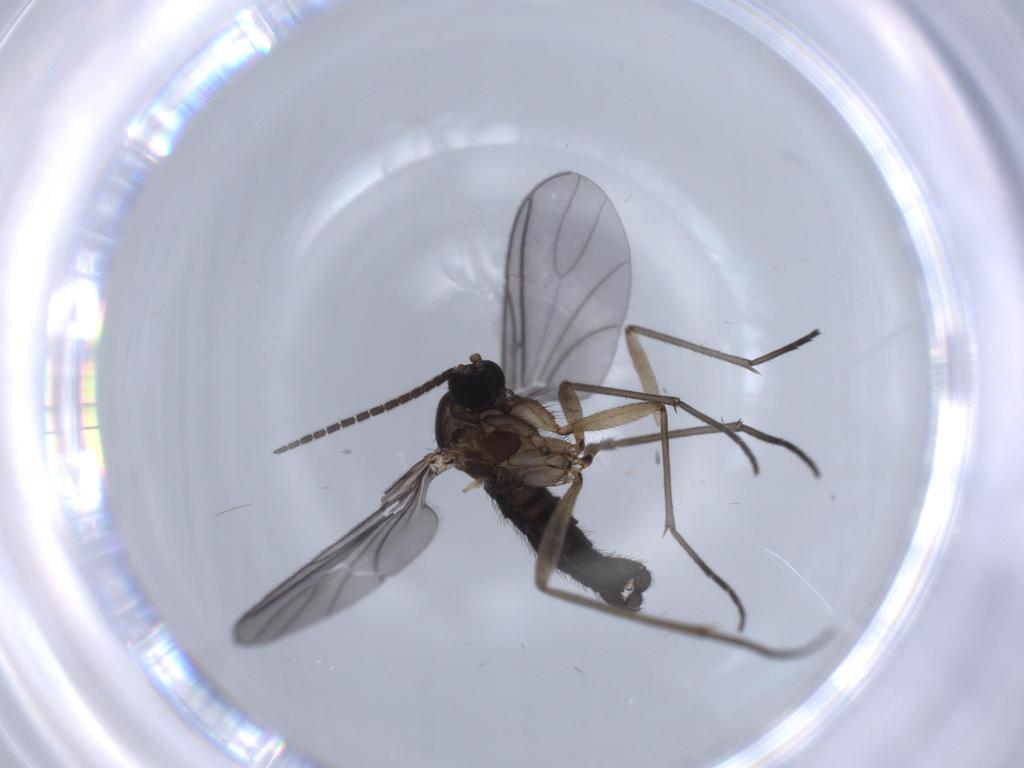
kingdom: Animalia
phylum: Arthropoda
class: Insecta
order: Diptera
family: Sciaridae
